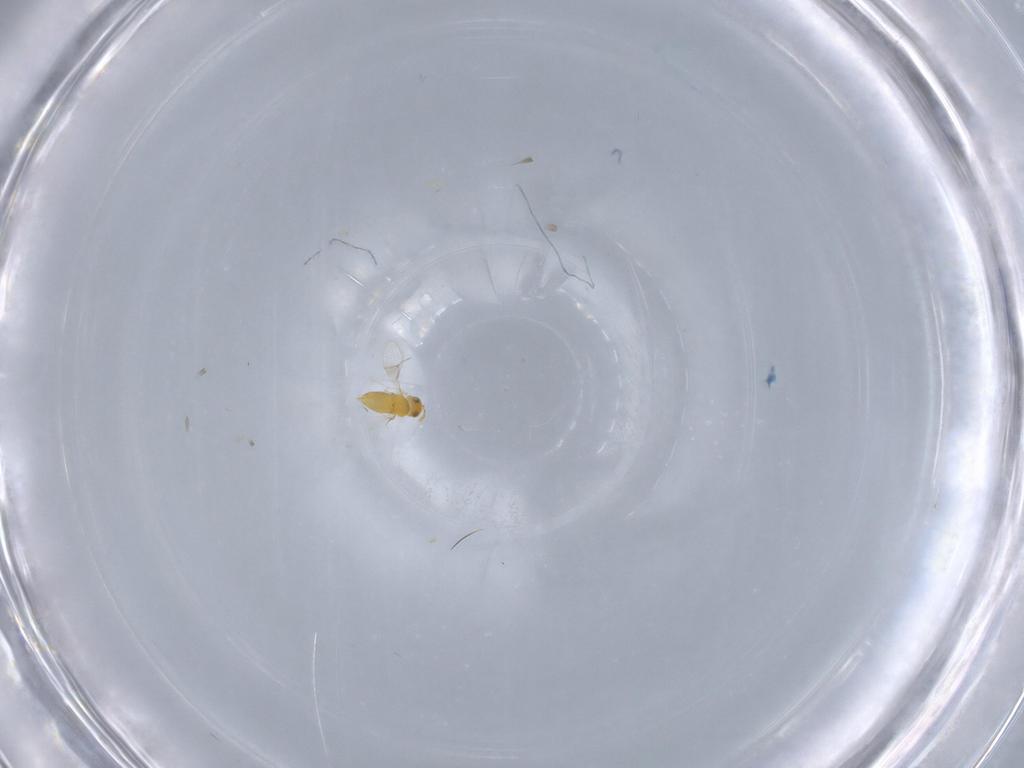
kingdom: Animalia
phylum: Arthropoda
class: Insecta
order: Hymenoptera
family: Aphelinidae
